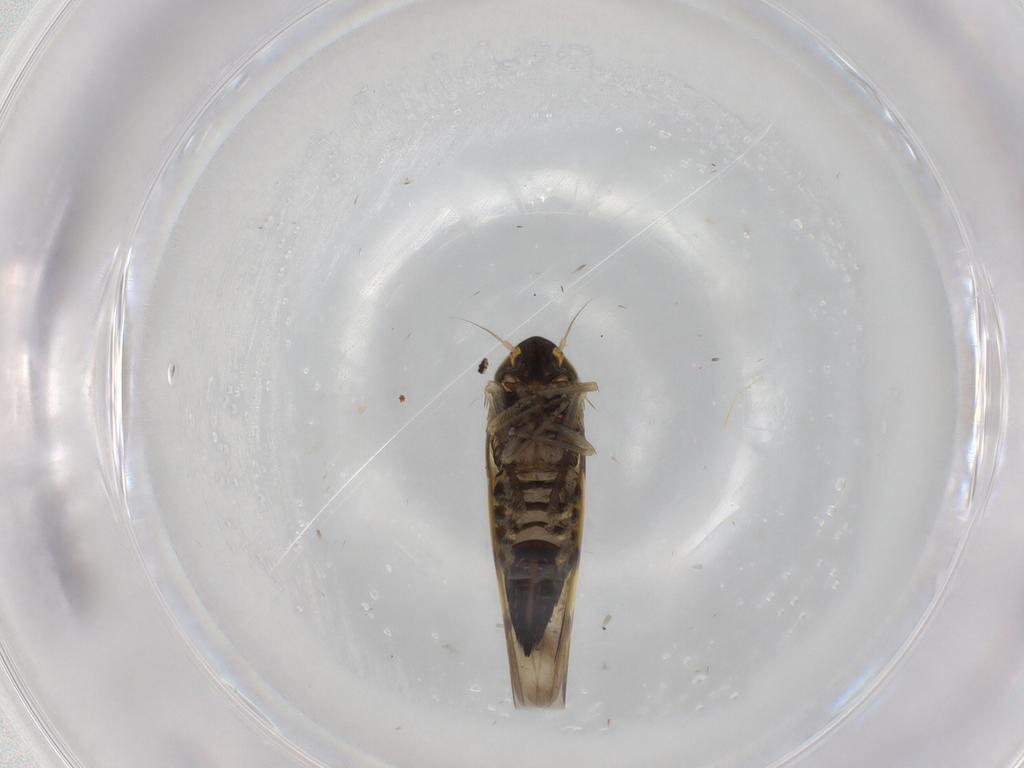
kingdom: Animalia
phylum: Arthropoda
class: Insecta
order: Hemiptera
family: Cicadellidae
